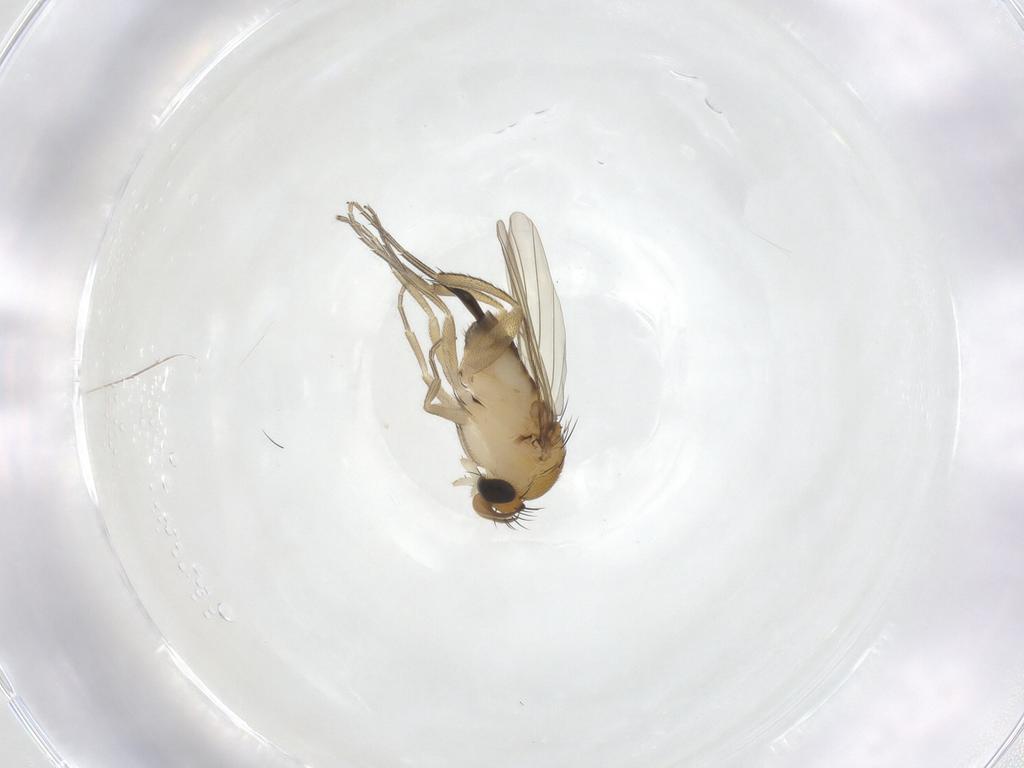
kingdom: Animalia
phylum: Arthropoda
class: Insecta
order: Diptera
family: Phoridae
